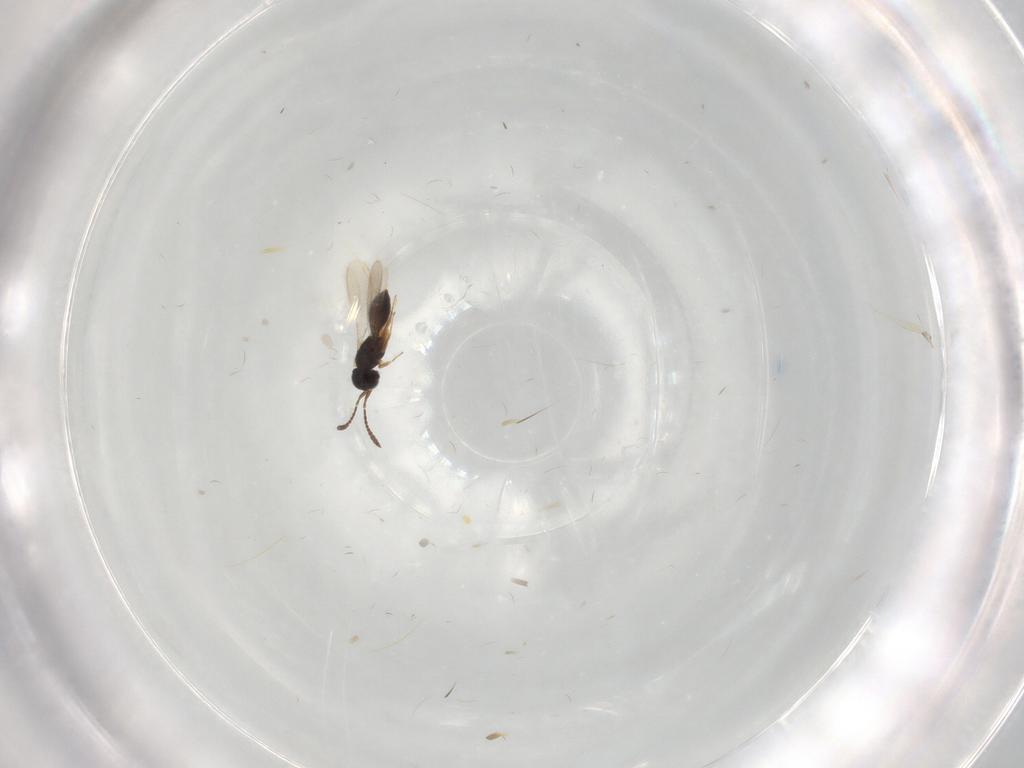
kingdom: Animalia
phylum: Arthropoda
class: Insecta
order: Hymenoptera
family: Scelionidae
